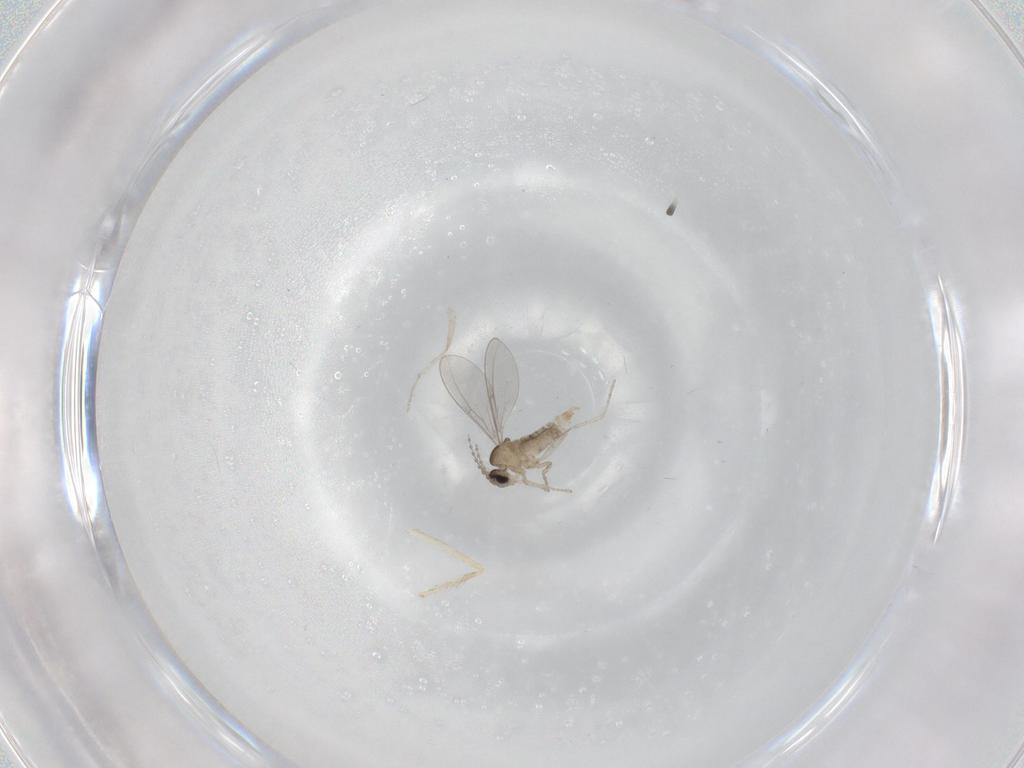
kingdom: Animalia
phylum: Arthropoda
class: Insecta
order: Diptera
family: Cecidomyiidae
